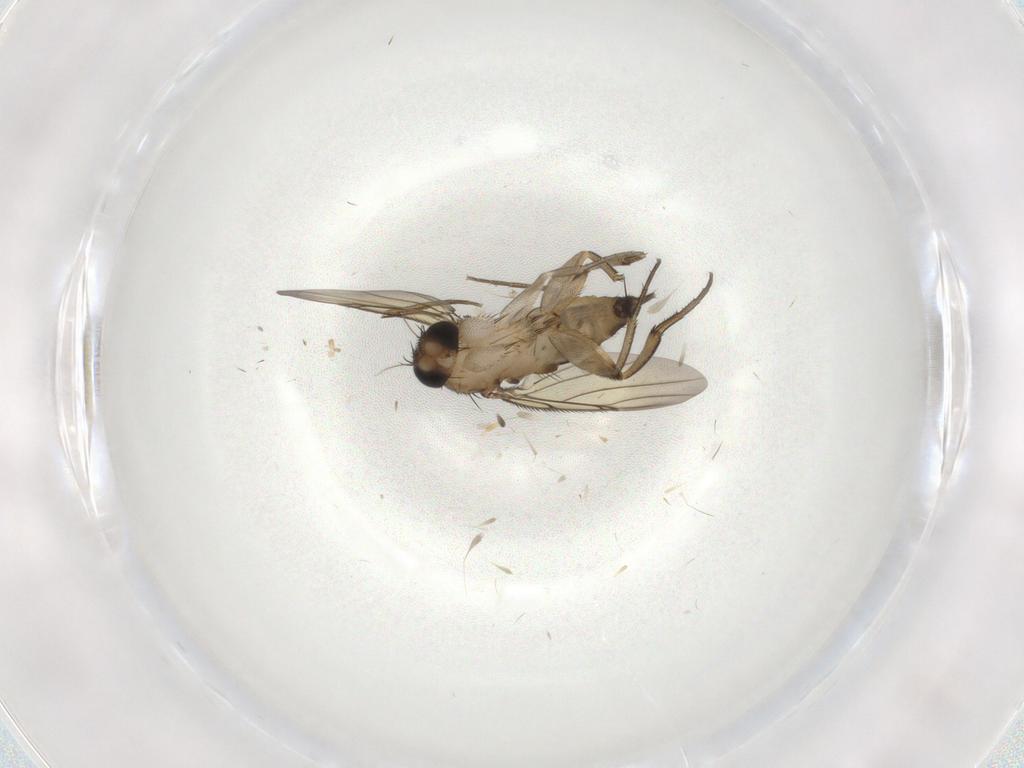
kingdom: Animalia
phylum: Arthropoda
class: Insecta
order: Diptera
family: Phoridae
